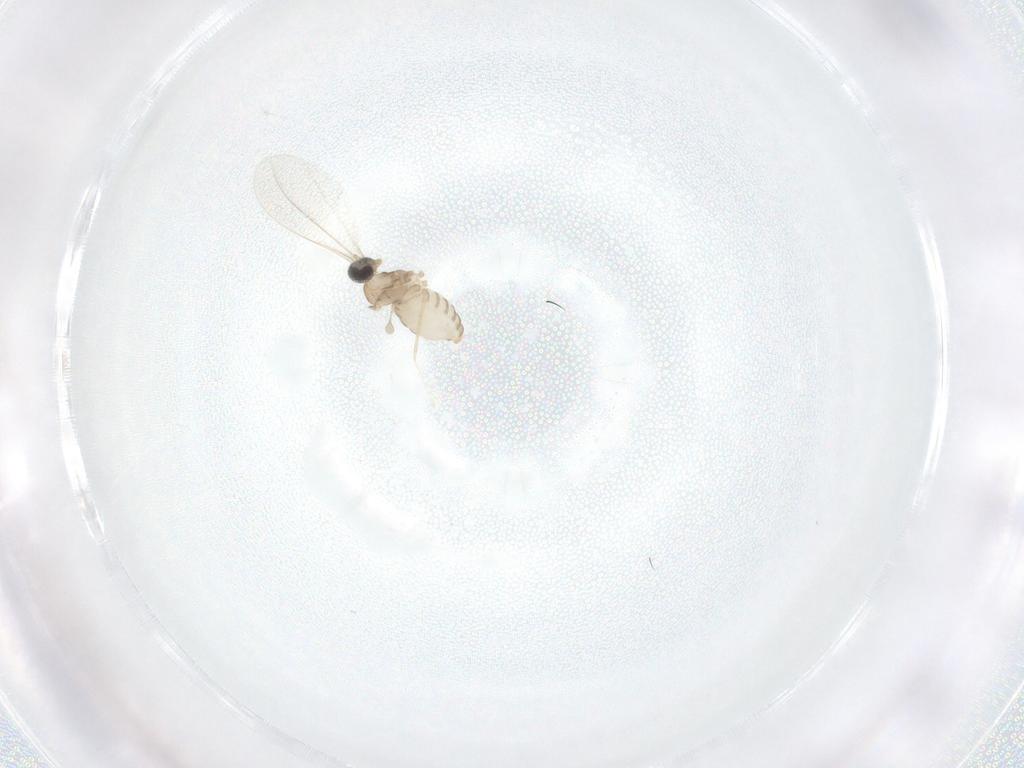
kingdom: Animalia
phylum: Arthropoda
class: Insecta
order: Diptera
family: Cecidomyiidae
